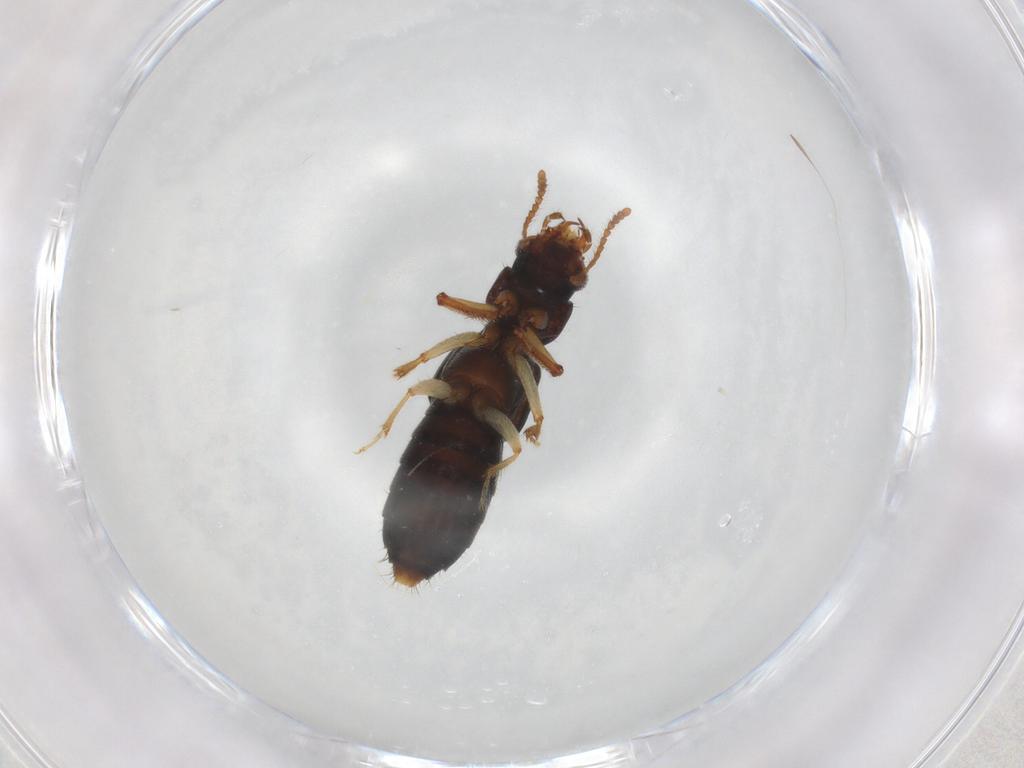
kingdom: Animalia
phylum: Arthropoda
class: Insecta
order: Coleoptera
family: Staphylinidae
